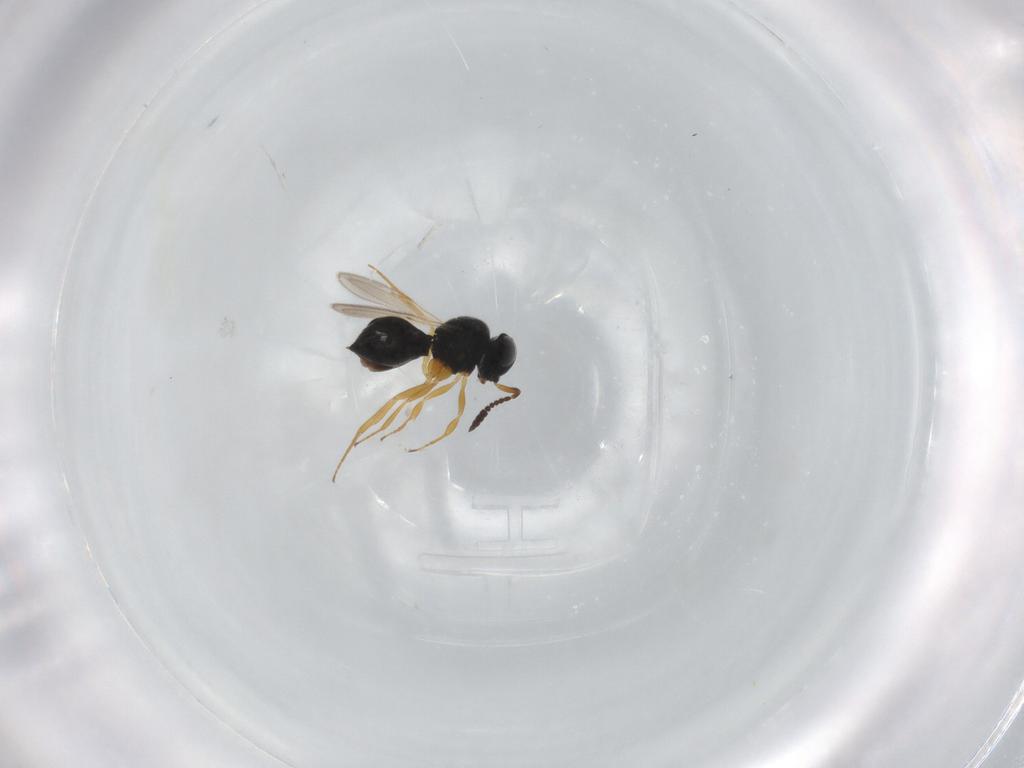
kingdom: Animalia
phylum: Arthropoda
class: Insecta
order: Hymenoptera
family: Scelionidae
